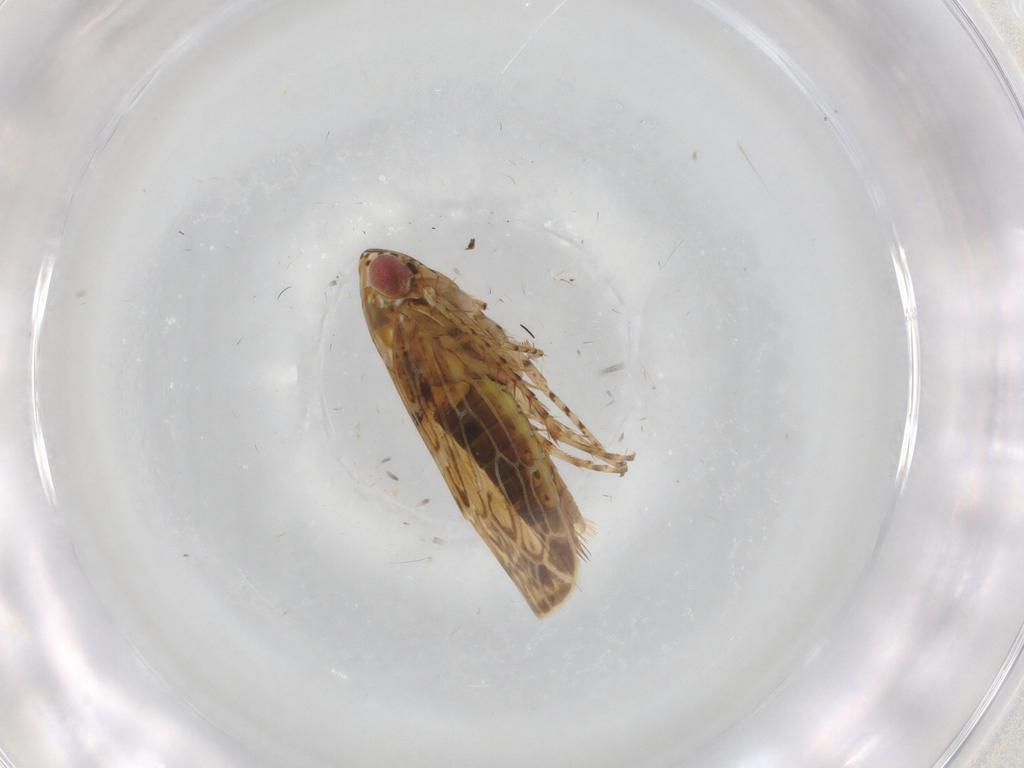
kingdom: Animalia
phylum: Arthropoda
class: Insecta
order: Hemiptera
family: Cicadellidae
